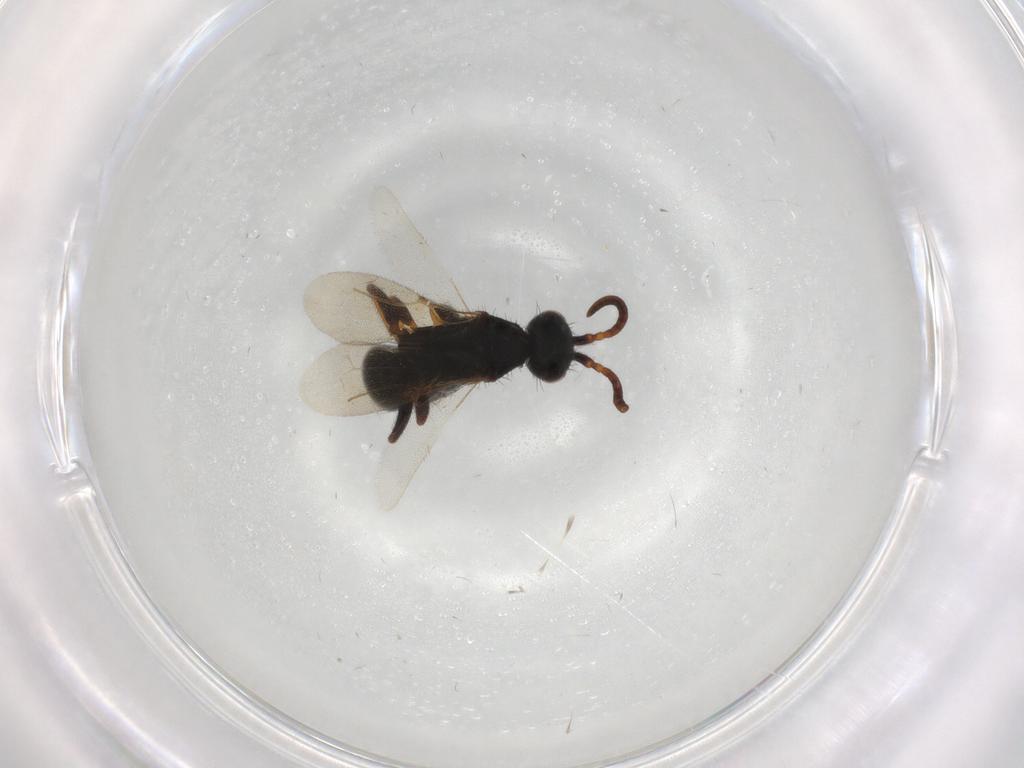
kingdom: Animalia
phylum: Arthropoda
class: Insecta
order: Hymenoptera
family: Bethylidae
